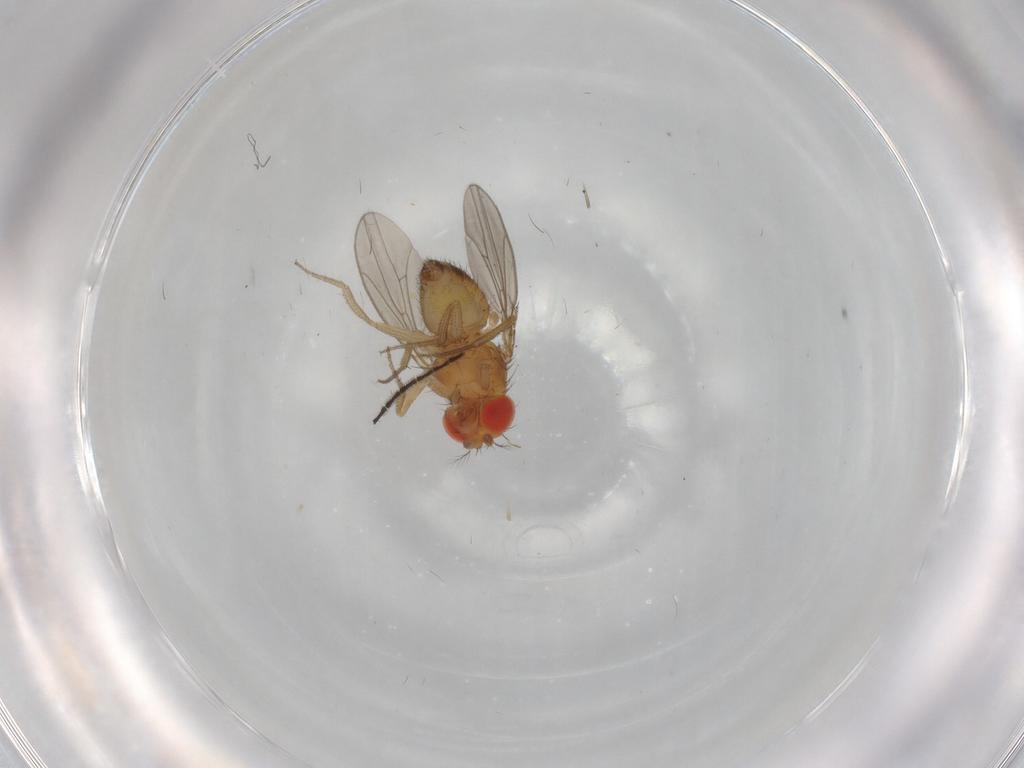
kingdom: Animalia
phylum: Arthropoda
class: Insecta
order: Diptera
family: Drosophilidae
